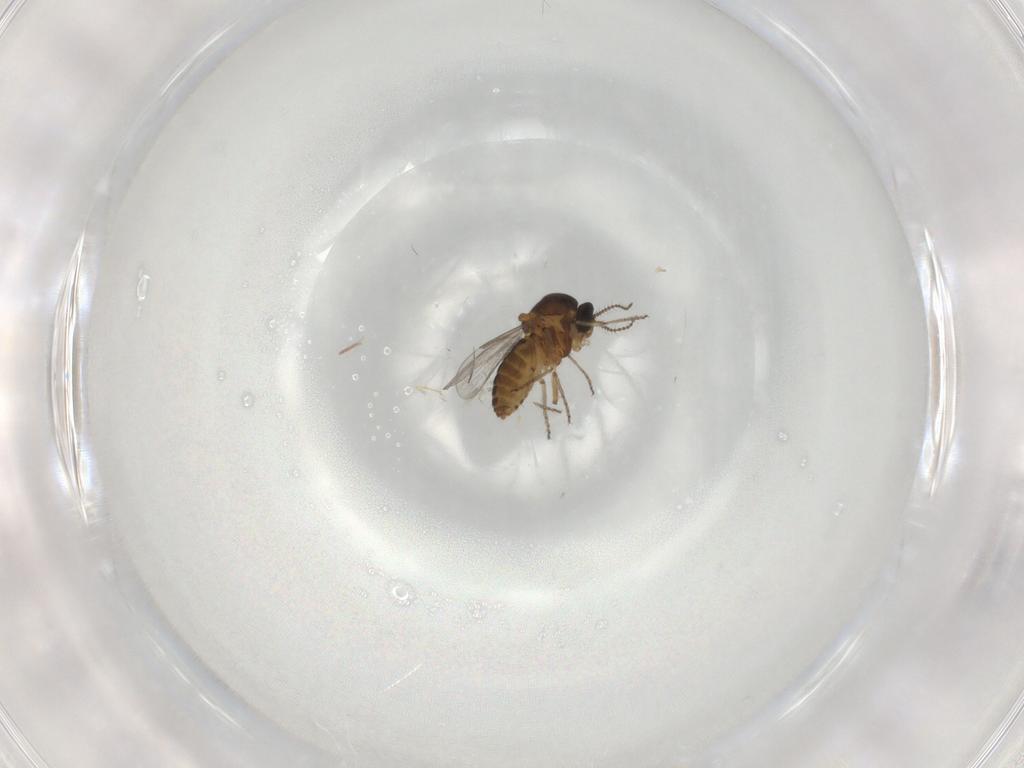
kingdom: Animalia
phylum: Arthropoda
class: Insecta
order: Diptera
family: Ceratopogonidae
